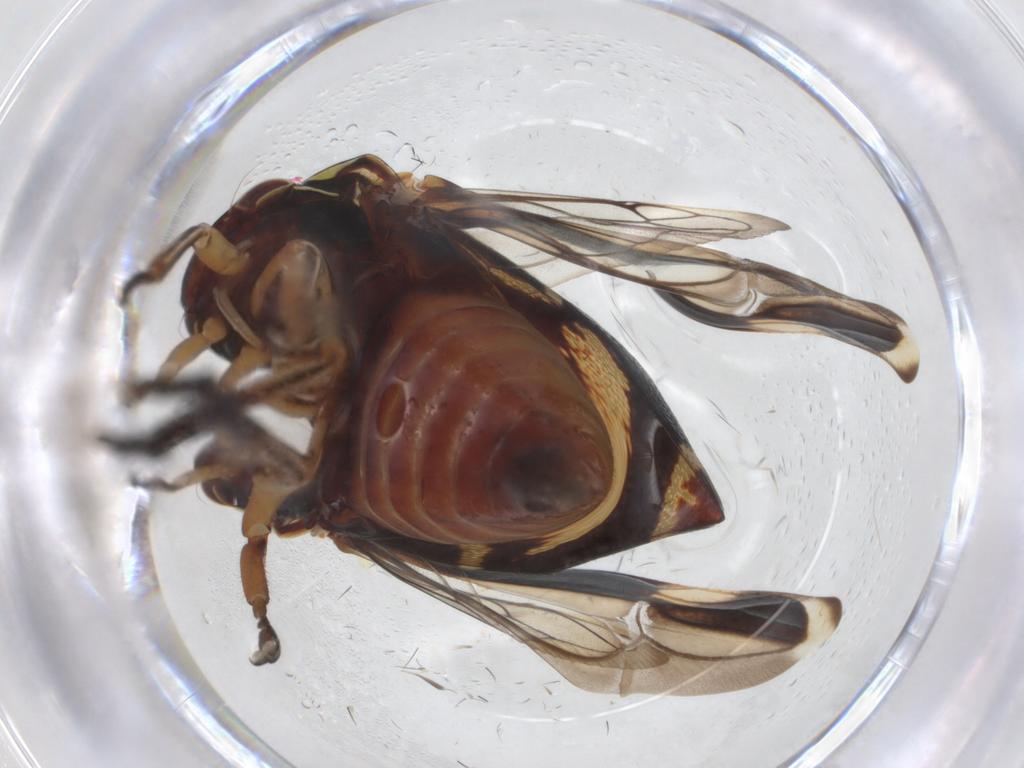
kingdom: Animalia
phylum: Arthropoda
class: Insecta
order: Hemiptera
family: Membracidae
